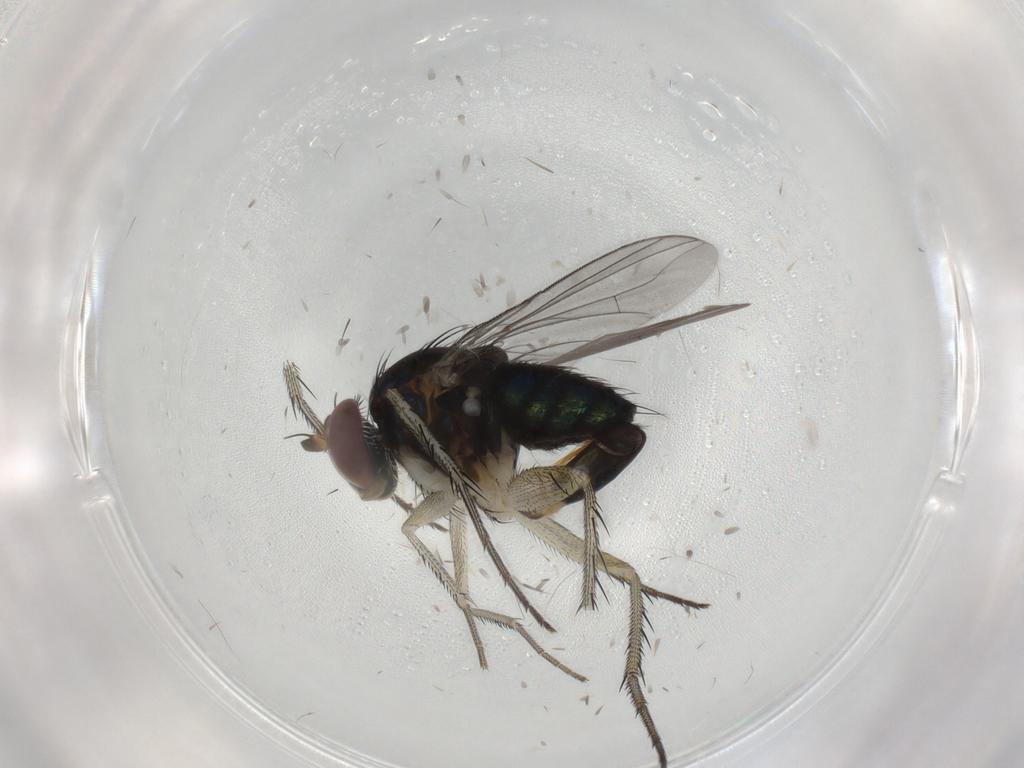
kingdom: Animalia
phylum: Arthropoda
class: Insecta
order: Diptera
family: Dolichopodidae
